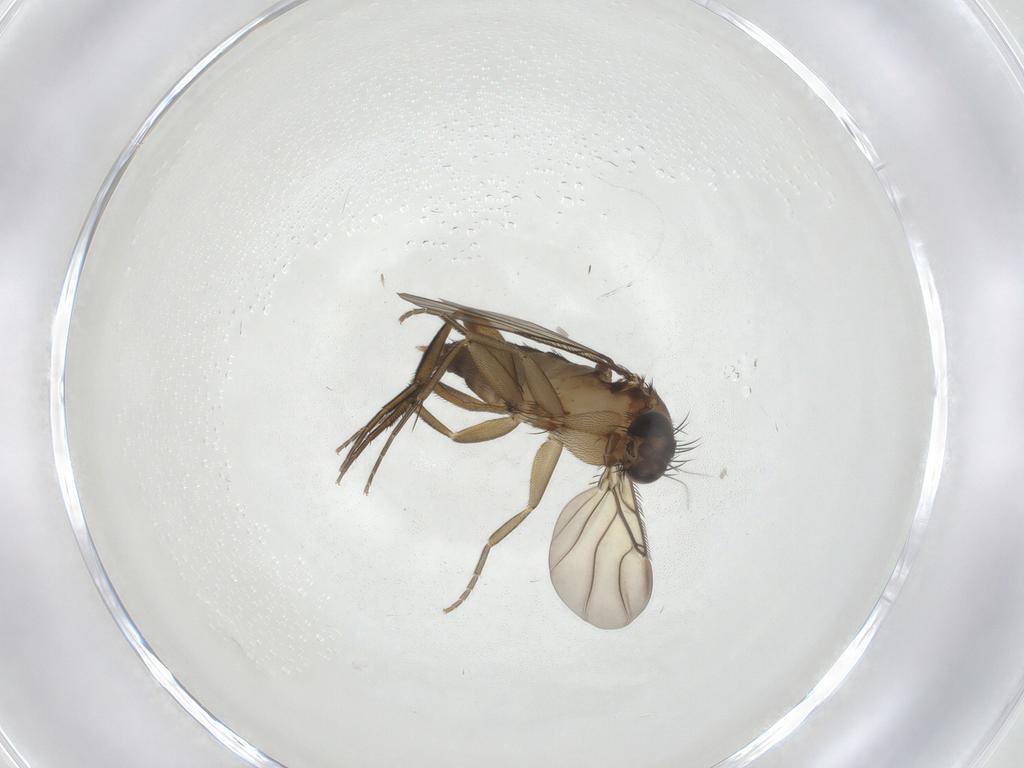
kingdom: Animalia
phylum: Arthropoda
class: Insecta
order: Diptera
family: Phoridae
